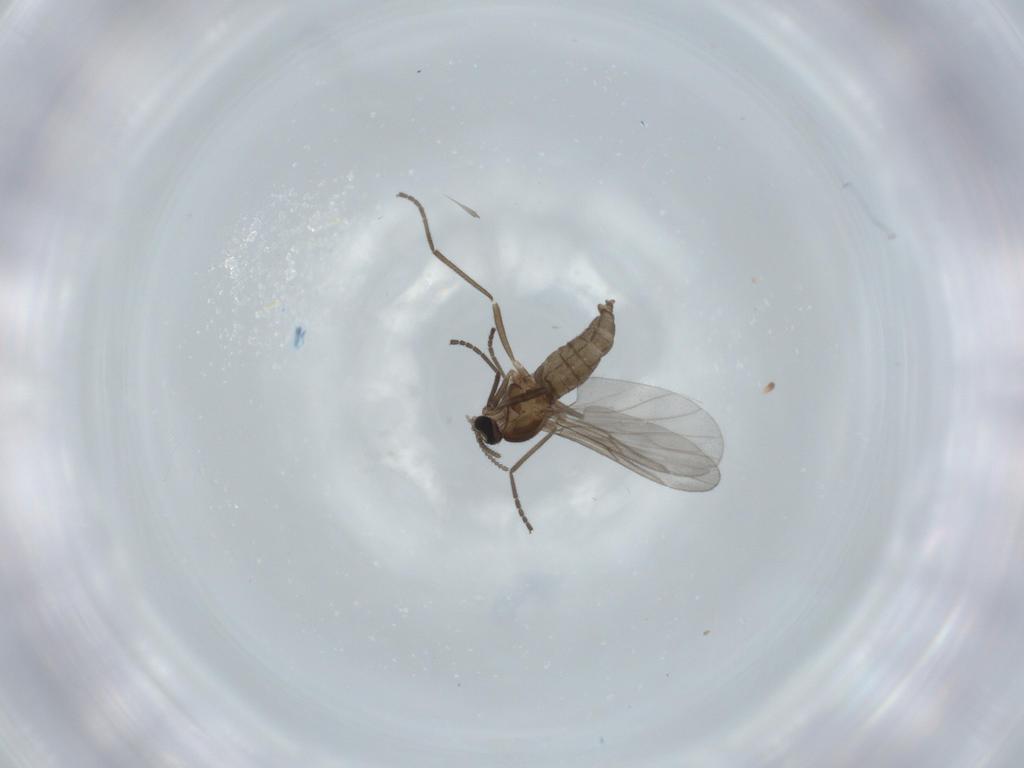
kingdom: Animalia
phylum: Arthropoda
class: Insecta
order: Diptera
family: Cecidomyiidae
